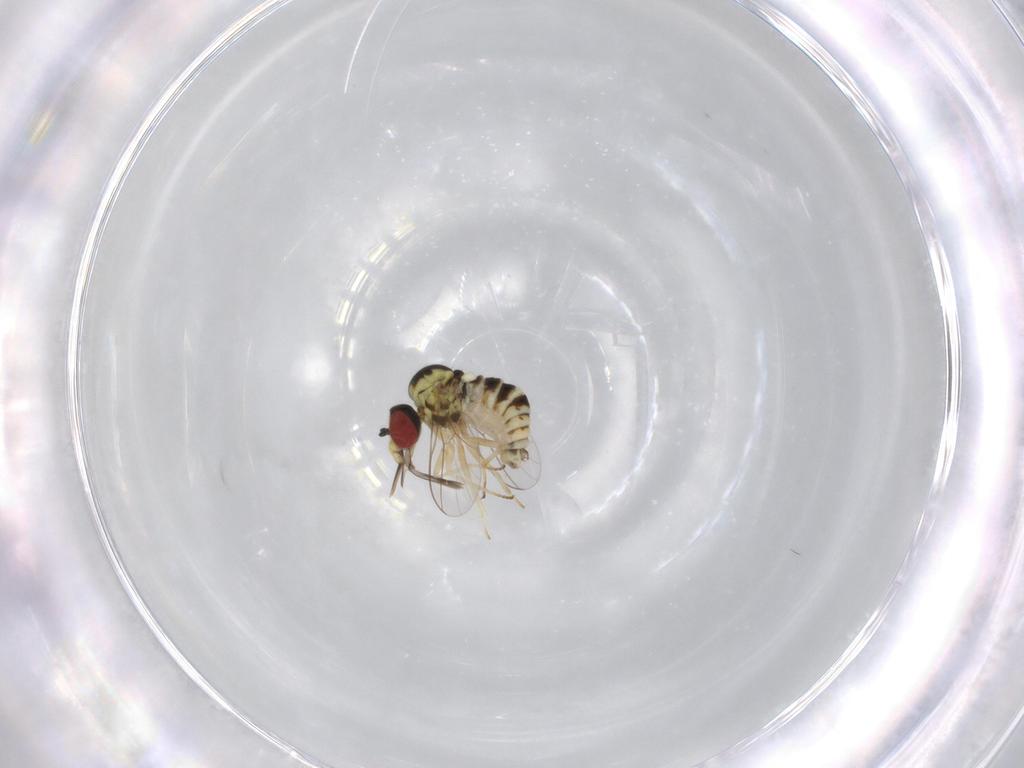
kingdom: Animalia
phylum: Arthropoda
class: Insecta
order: Diptera
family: Bombyliidae
